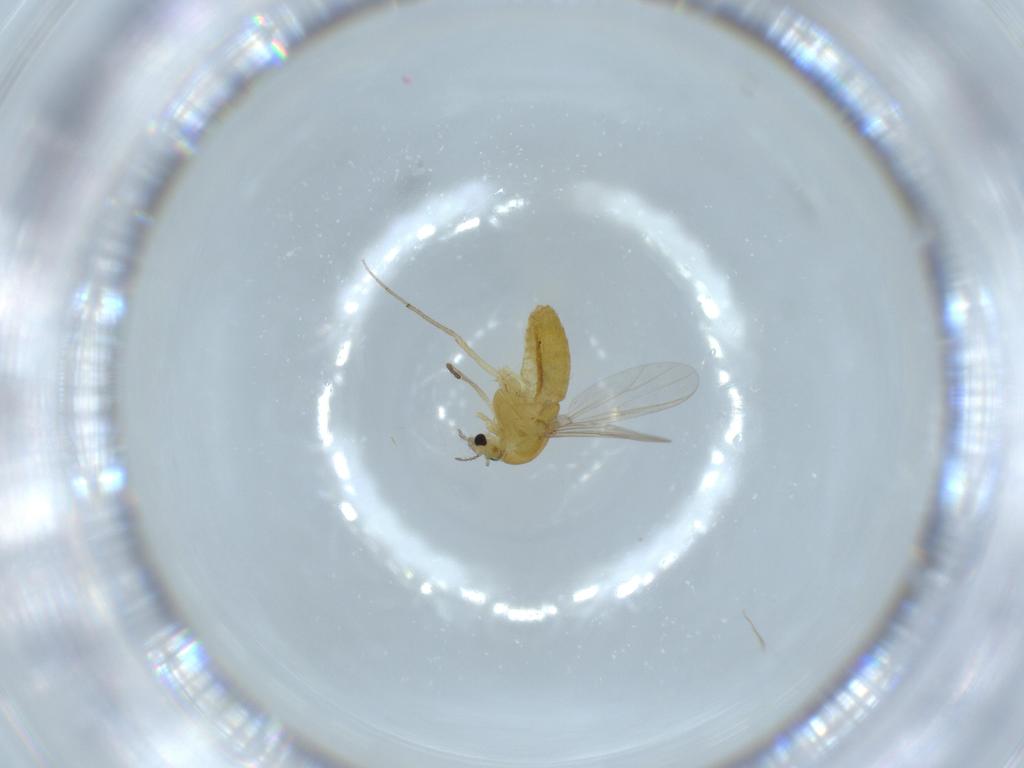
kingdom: Animalia
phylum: Arthropoda
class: Insecta
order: Diptera
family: Chironomidae
